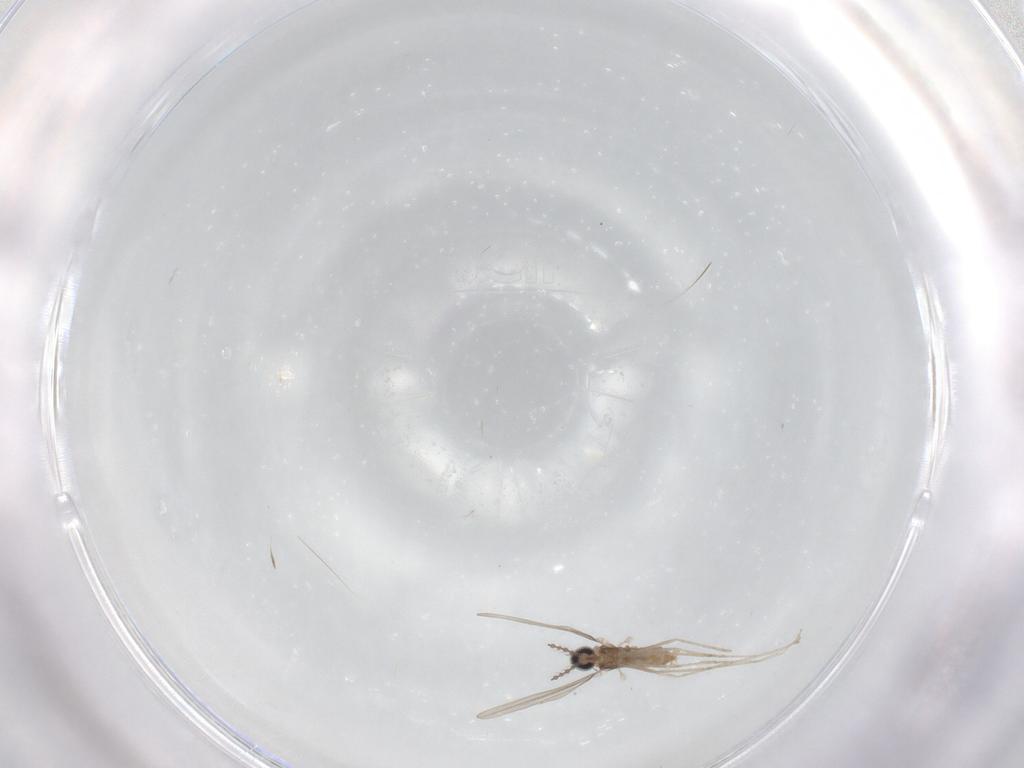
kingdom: Animalia
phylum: Arthropoda
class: Insecta
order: Diptera
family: Cecidomyiidae
